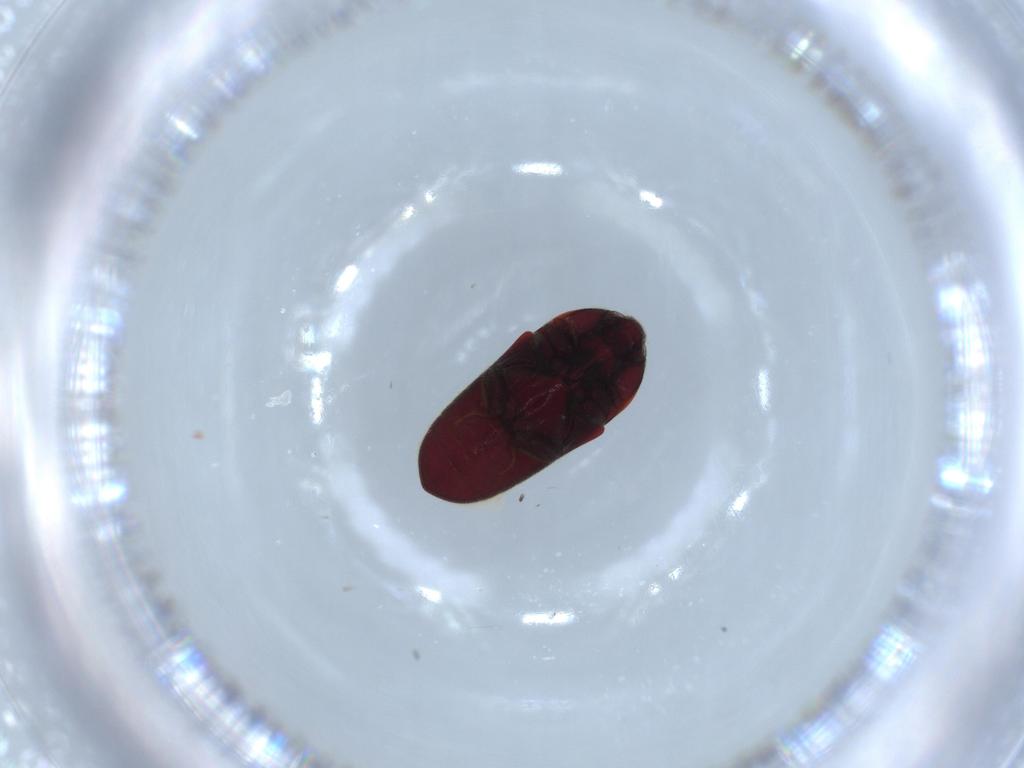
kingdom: Animalia
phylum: Arthropoda
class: Insecta
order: Coleoptera
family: Throscidae
